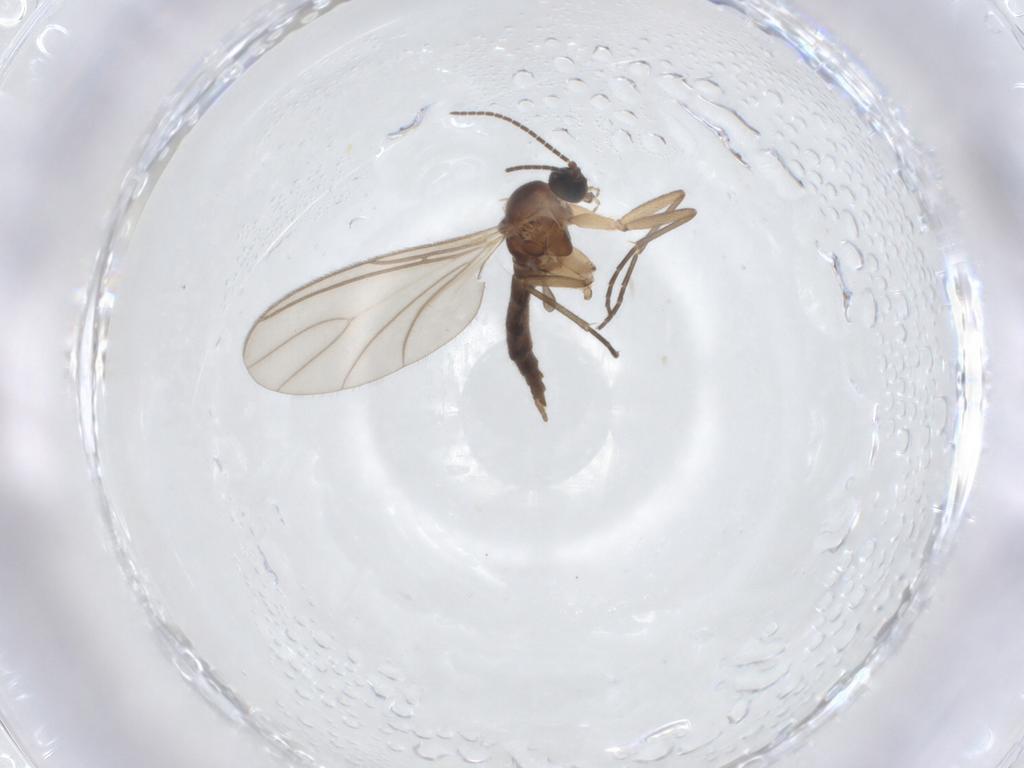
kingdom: Animalia
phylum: Arthropoda
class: Insecta
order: Diptera
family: Sciaridae
